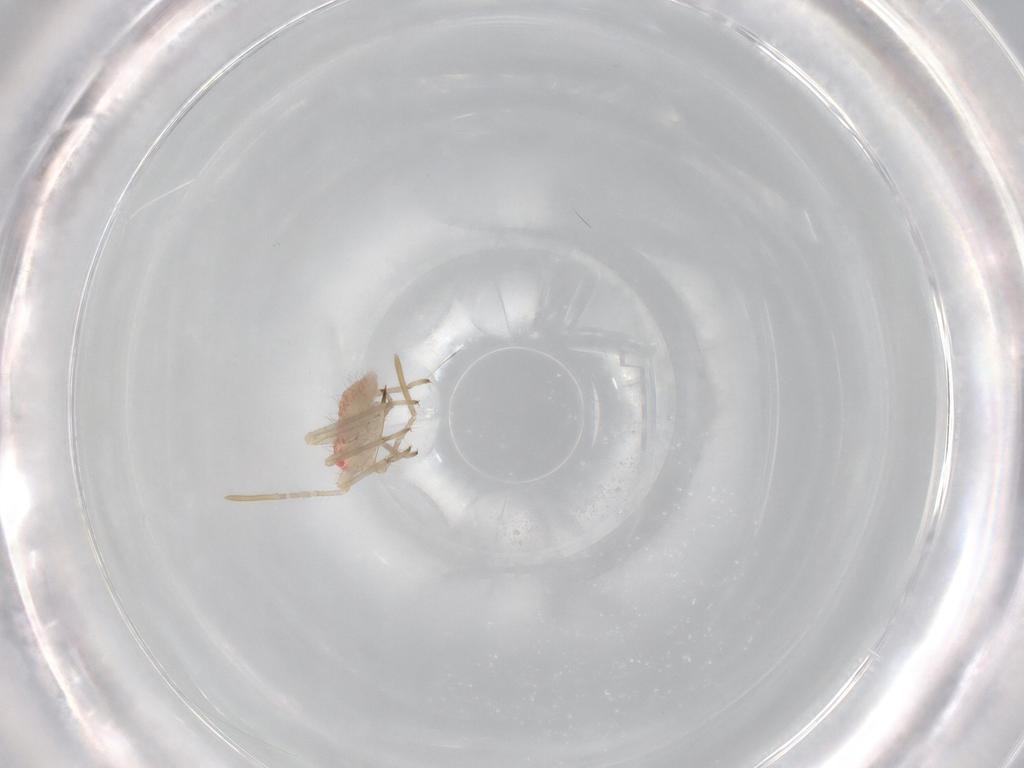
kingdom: Animalia
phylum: Arthropoda
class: Insecta
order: Hemiptera
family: Miridae
